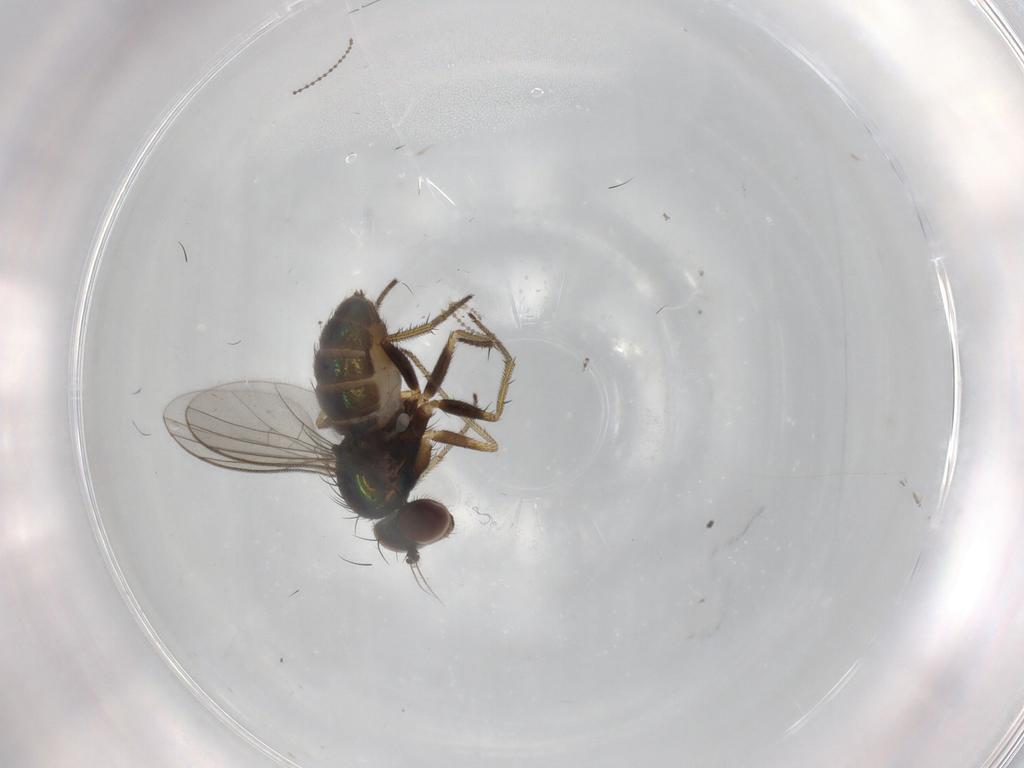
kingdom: Animalia
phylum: Arthropoda
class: Insecta
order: Diptera
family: Dolichopodidae
